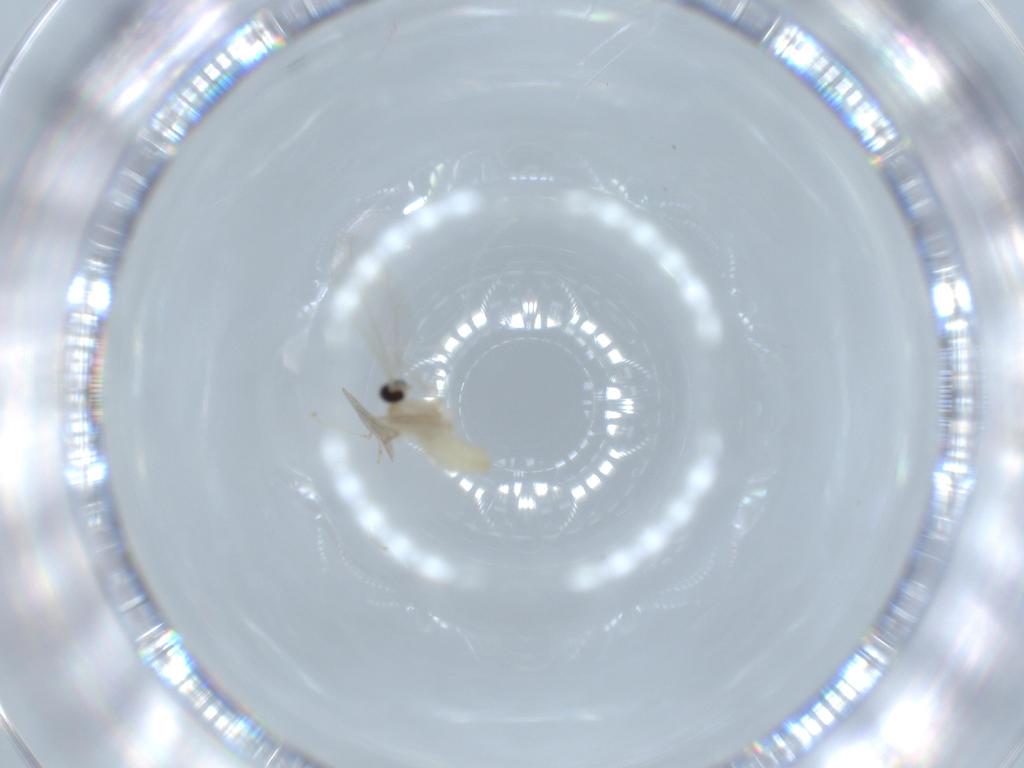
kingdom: Animalia
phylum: Arthropoda
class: Insecta
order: Diptera
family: Cecidomyiidae
